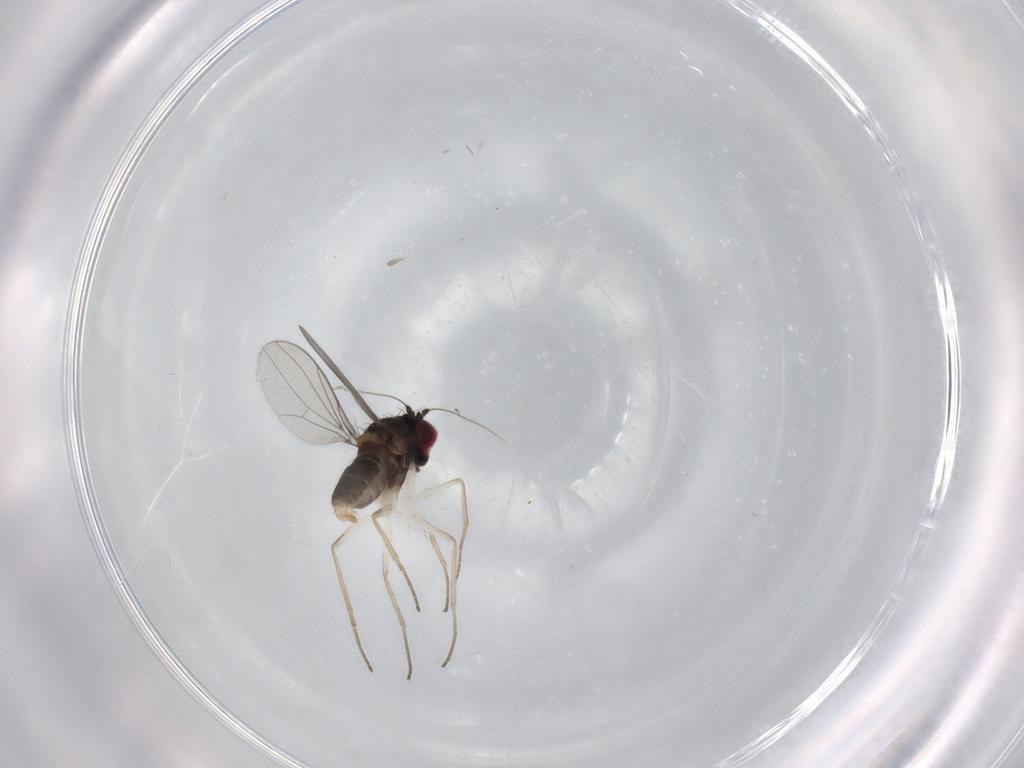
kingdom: Animalia
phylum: Arthropoda
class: Insecta
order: Diptera
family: Dolichopodidae
